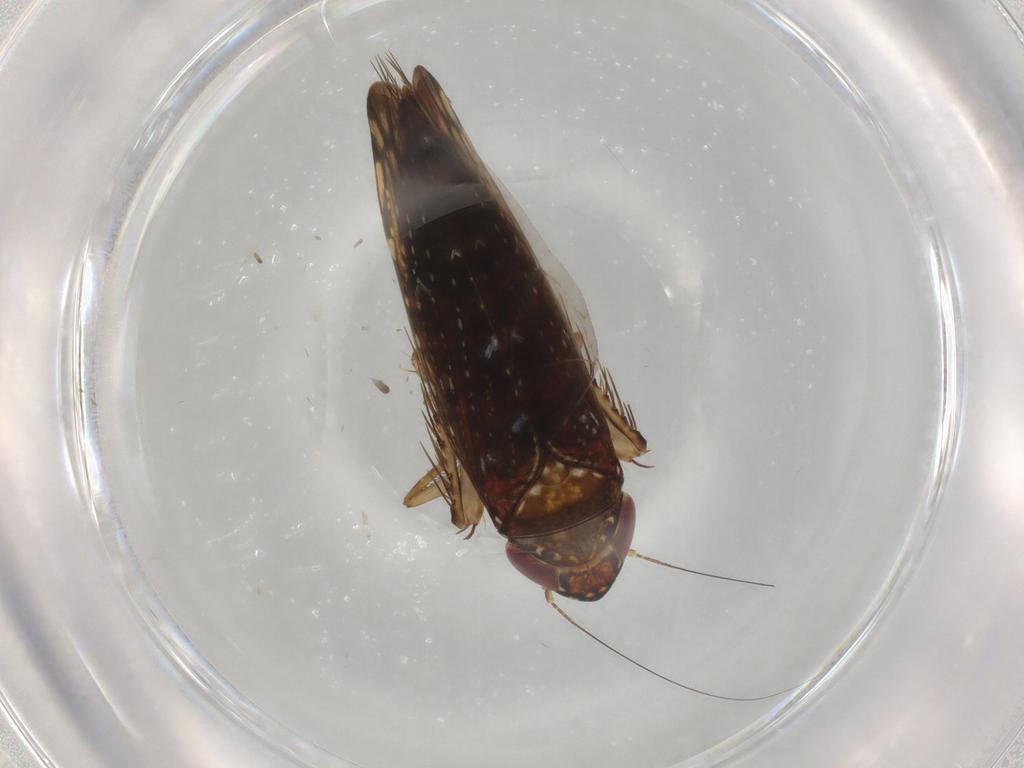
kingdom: Animalia
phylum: Arthropoda
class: Insecta
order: Hemiptera
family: Cicadellidae
